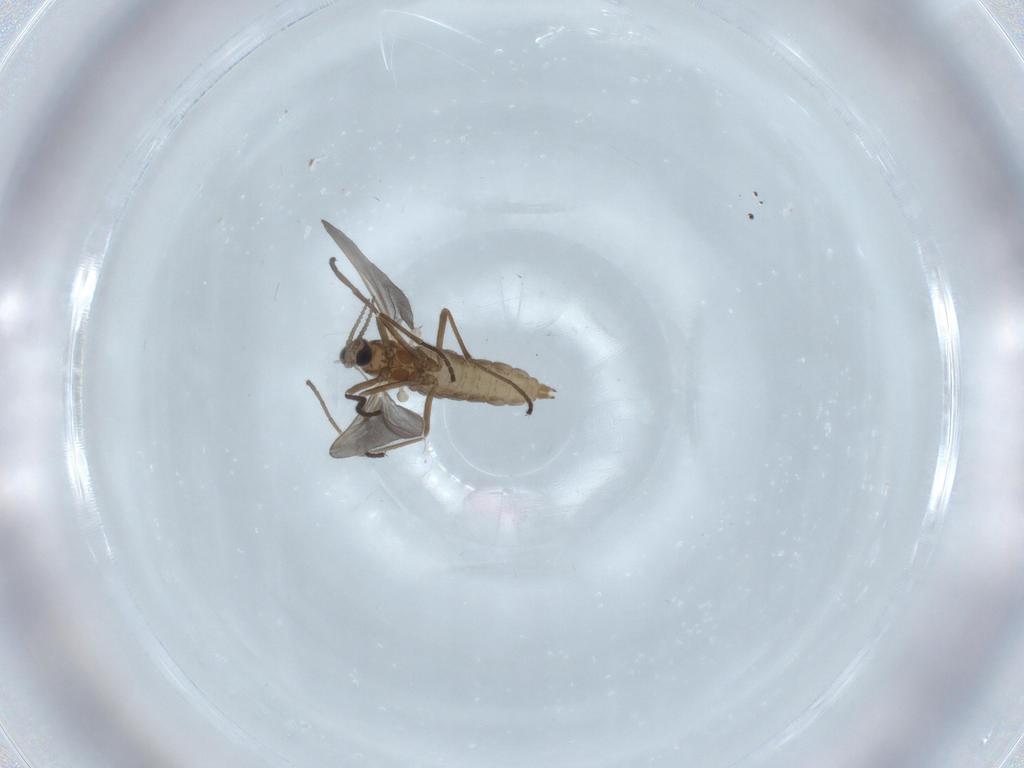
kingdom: Animalia
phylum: Arthropoda
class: Insecta
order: Diptera
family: Cecidomyiidae
